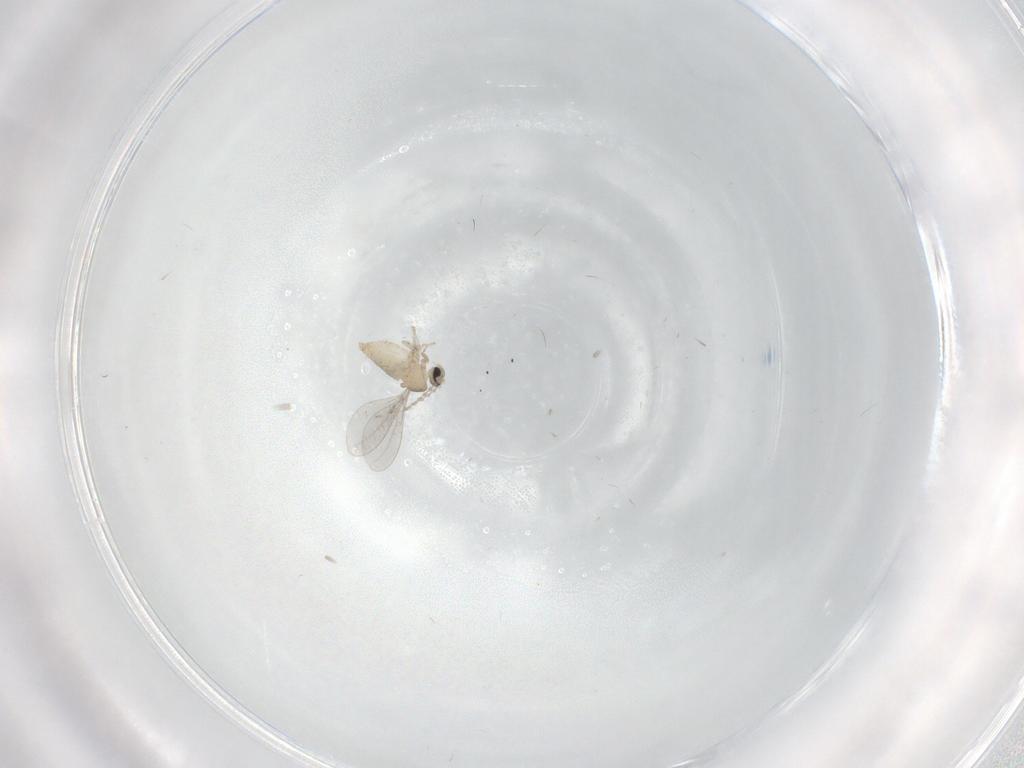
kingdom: Animalia
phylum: Arthropoda
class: Insecta
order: Diptera
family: Cecidomyiidae
